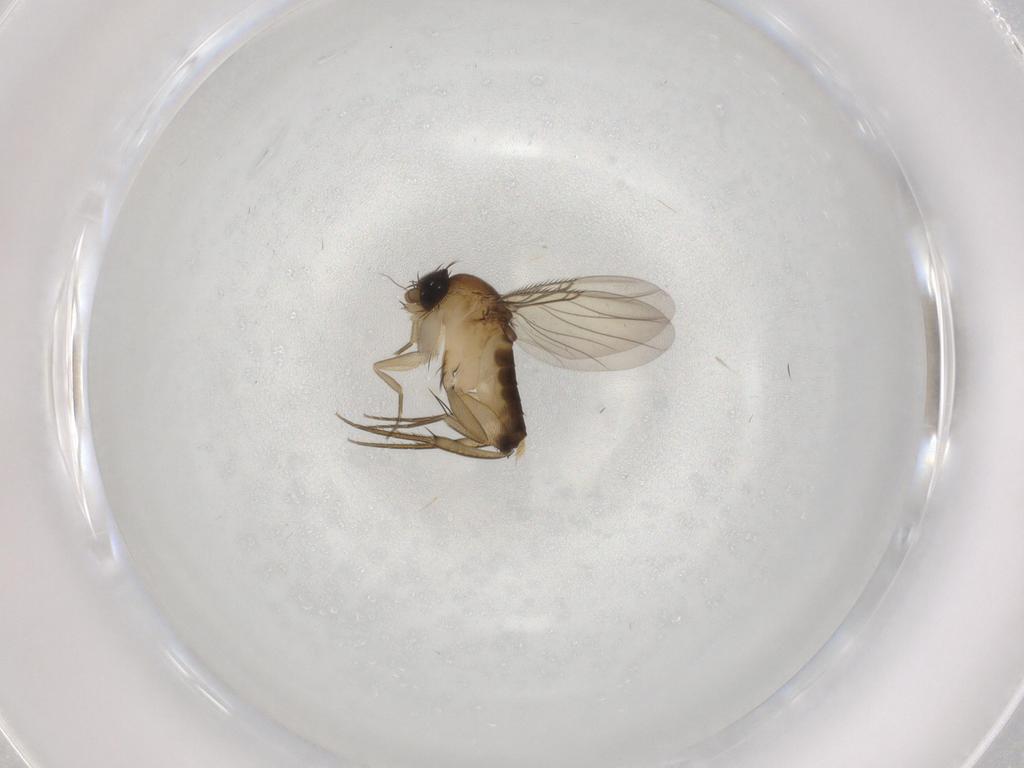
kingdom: Animalia
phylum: Arthropoda
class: Insecta
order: Diptera
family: Phoridae
